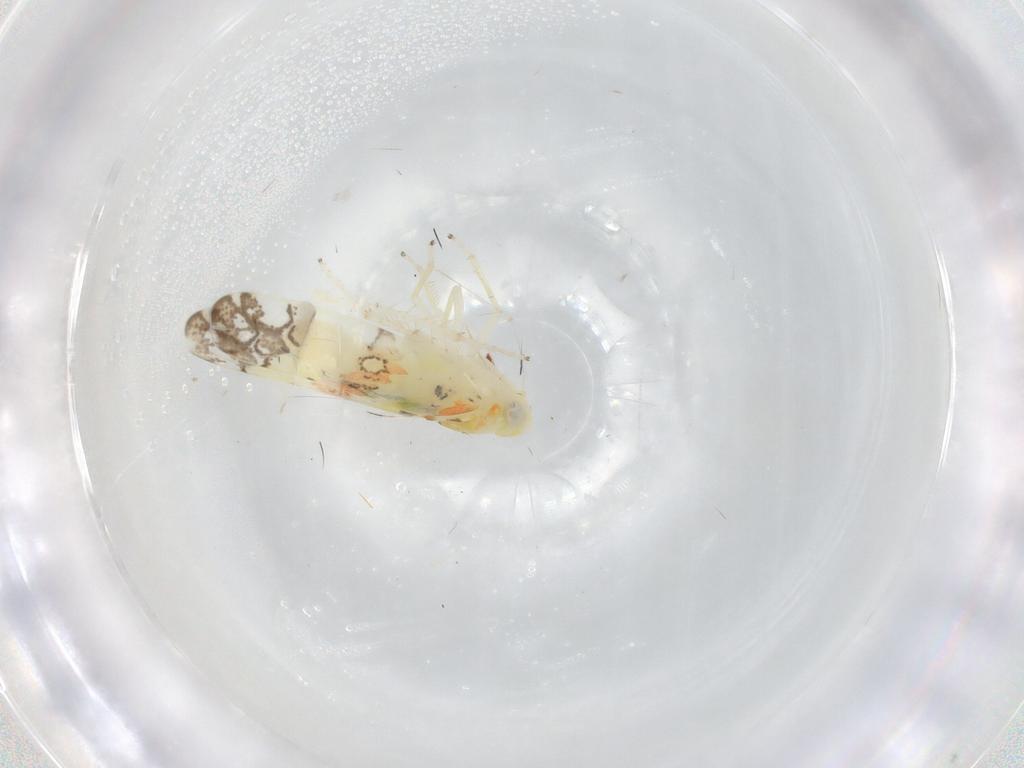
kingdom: Animalia
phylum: Arthropoda
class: Insecta
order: Hemiptera
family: Cicadellidae
